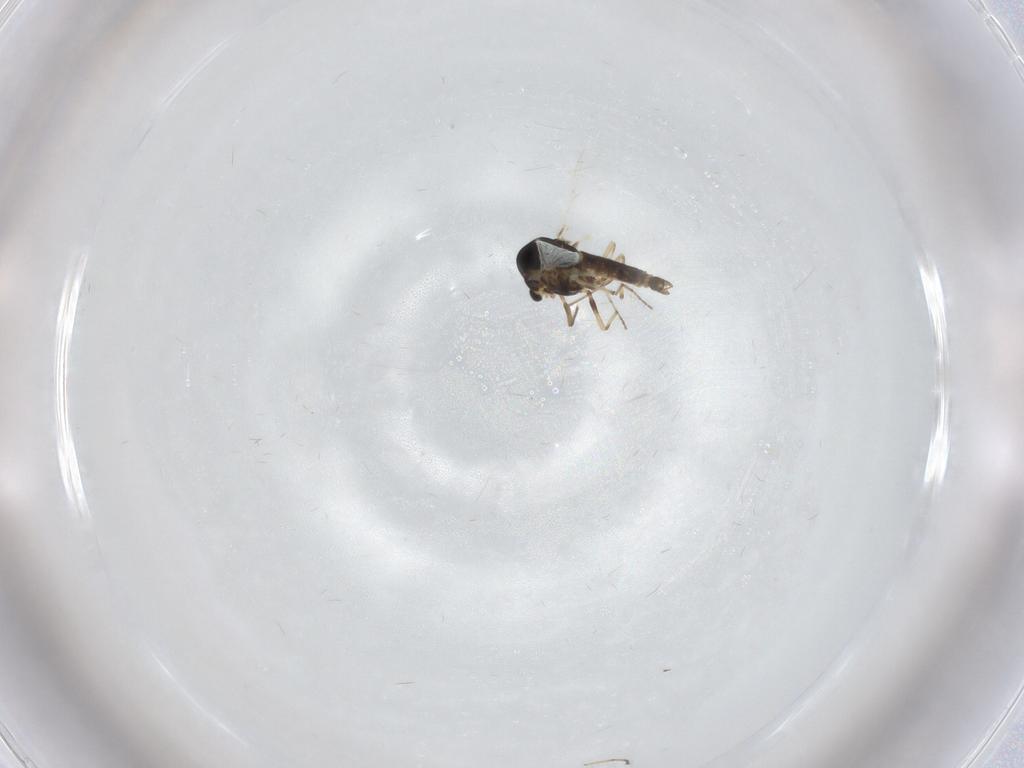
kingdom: Animalia
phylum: Arthropoda
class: Insecta
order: Diptera
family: Chironomidae
